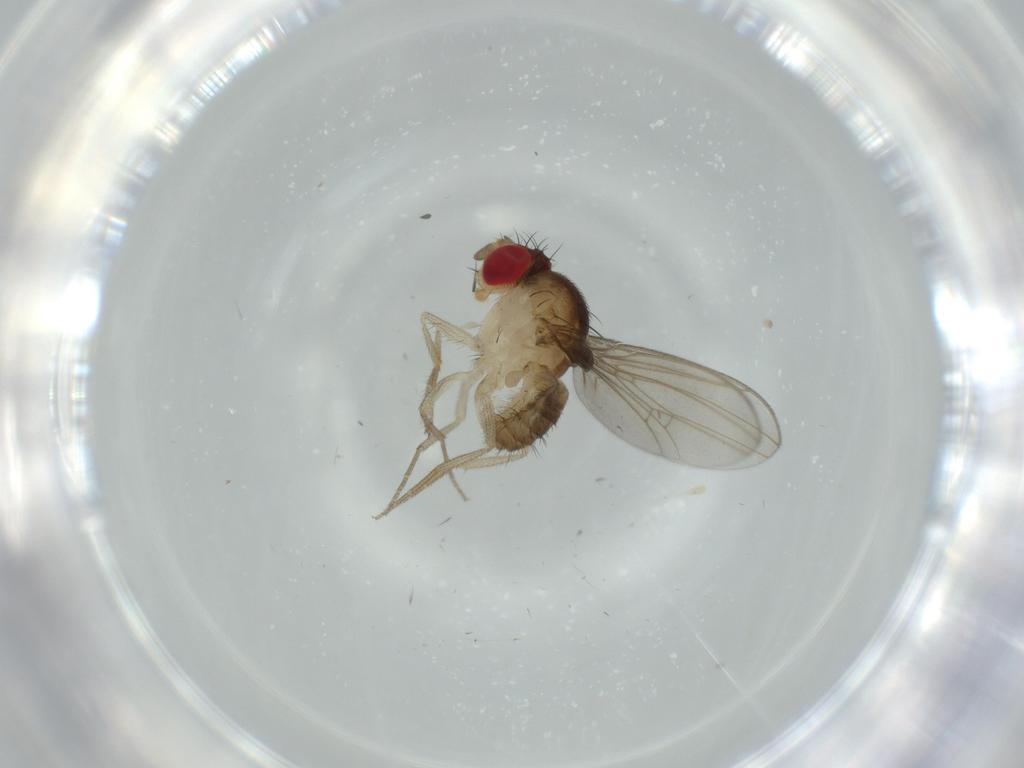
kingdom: Animalia
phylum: Arthropoda
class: Insecta
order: Diptera
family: Drosophilidae
